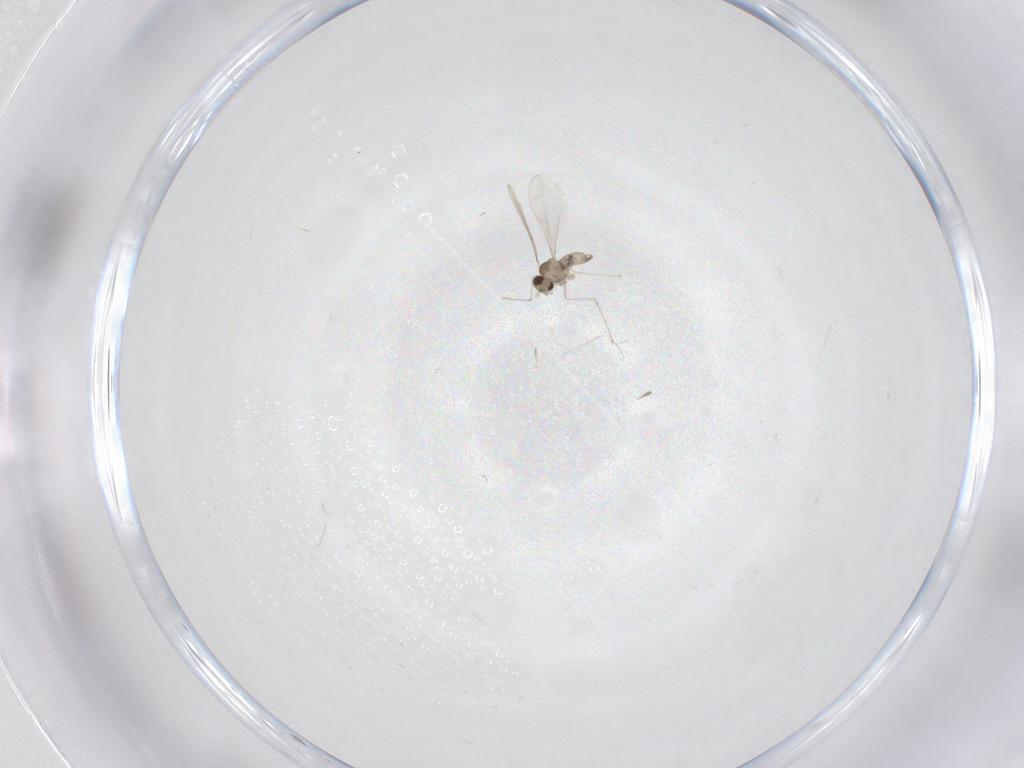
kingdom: Animalia
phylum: Arthropoda
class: Insecta
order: Diptera
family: Cecidomyiidae
